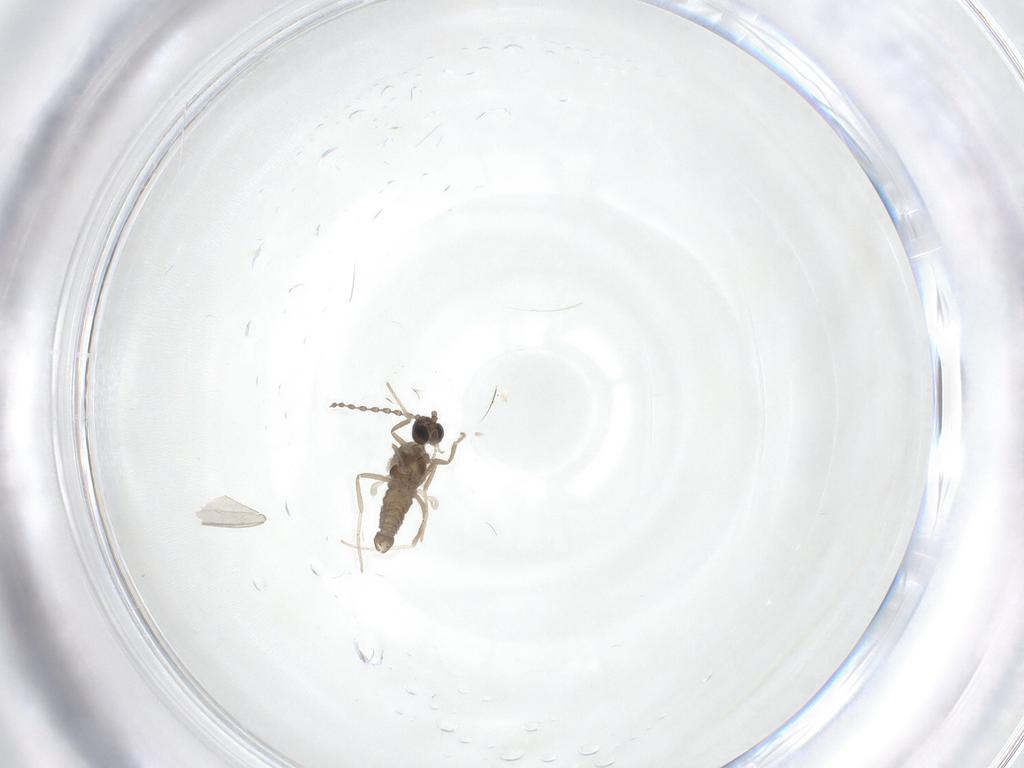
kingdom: Animalia
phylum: Arthropoda
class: Insecta
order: Diptera
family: Cecidomyiidae
